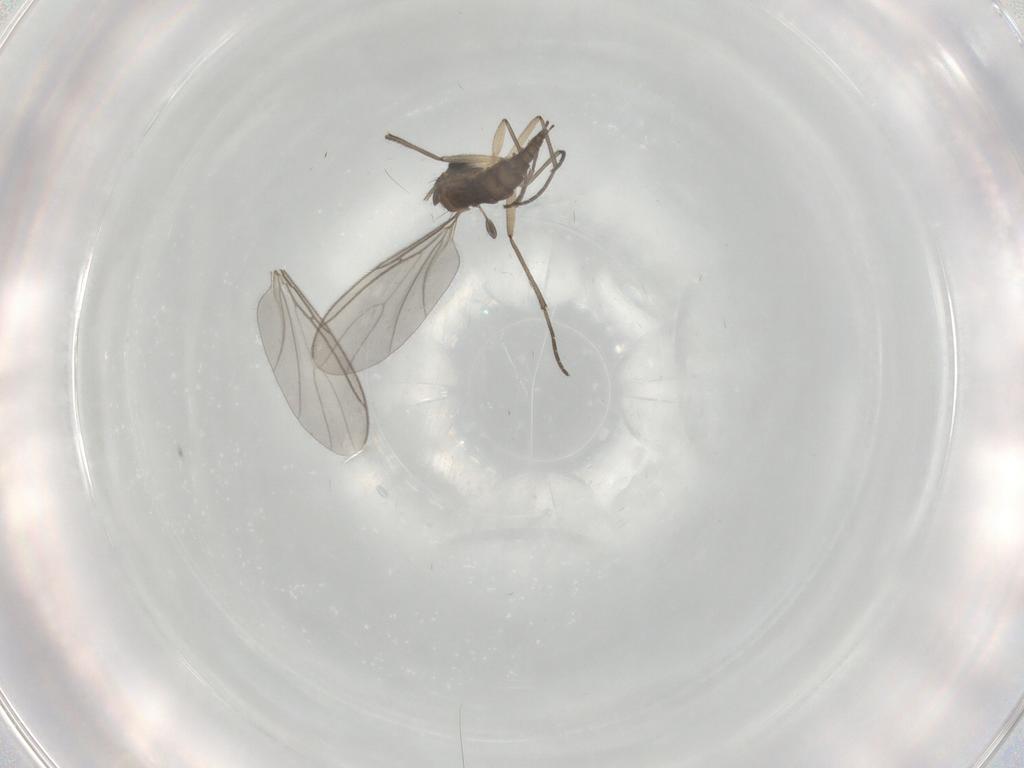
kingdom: Animalia
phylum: Arthropoda
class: Insecta
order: Diptera
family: Sciaridae
